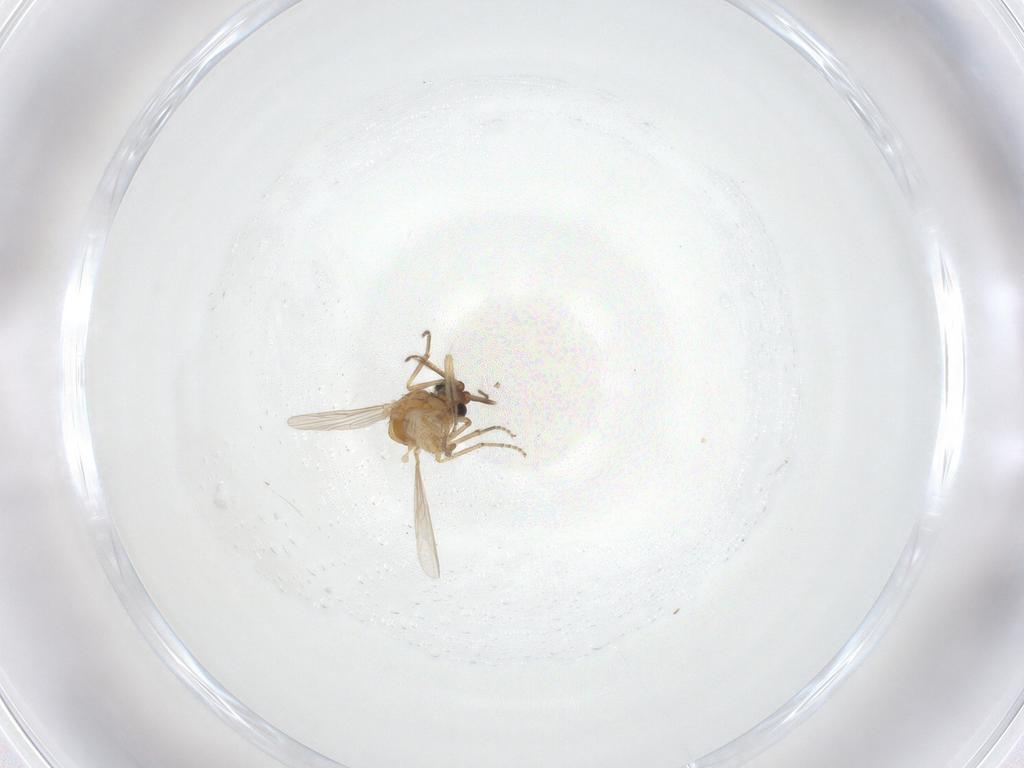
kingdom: Animalia
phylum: Arthropoda
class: Insecta
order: Diptera
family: Ceratopogonidae
